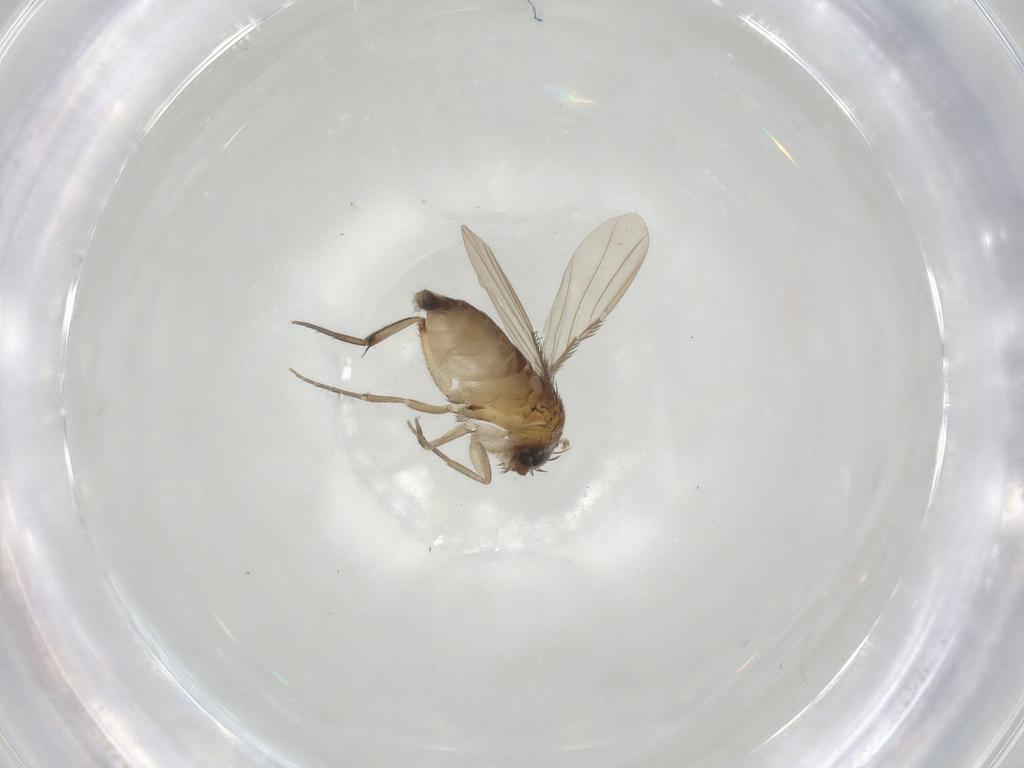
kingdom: Animalia
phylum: Arthropoda
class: Insecta
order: Diptera
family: Phoridae
